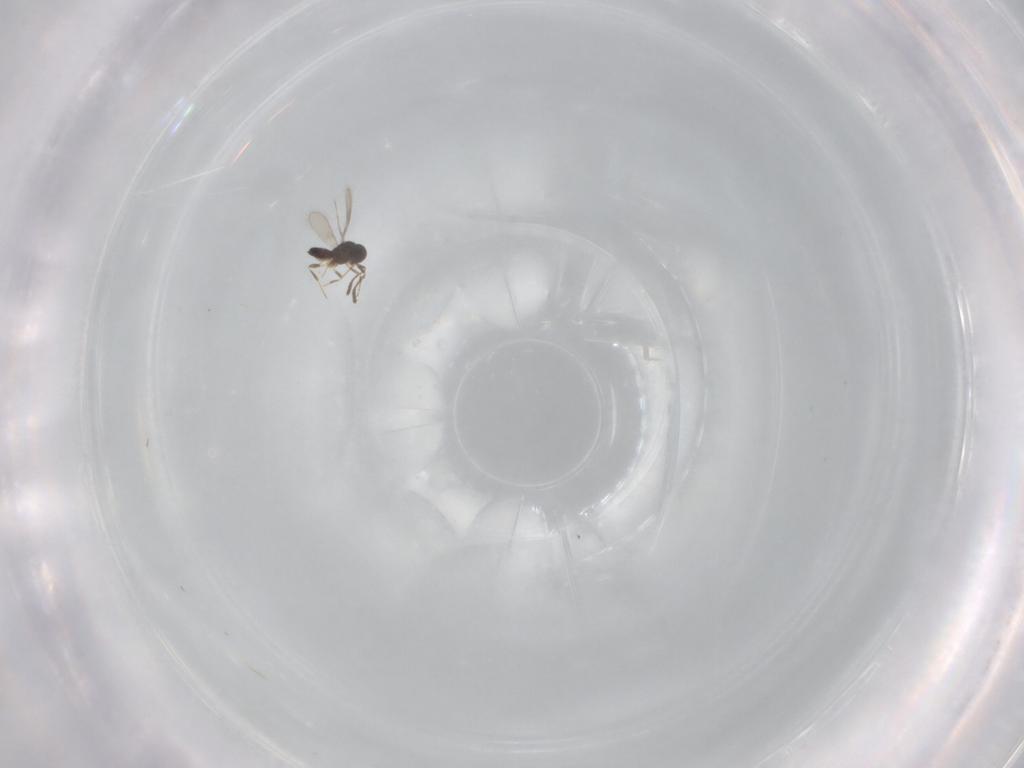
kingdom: Animalia
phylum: Arthropoda
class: Insecta
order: Hymenoptera
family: Scelionidae
